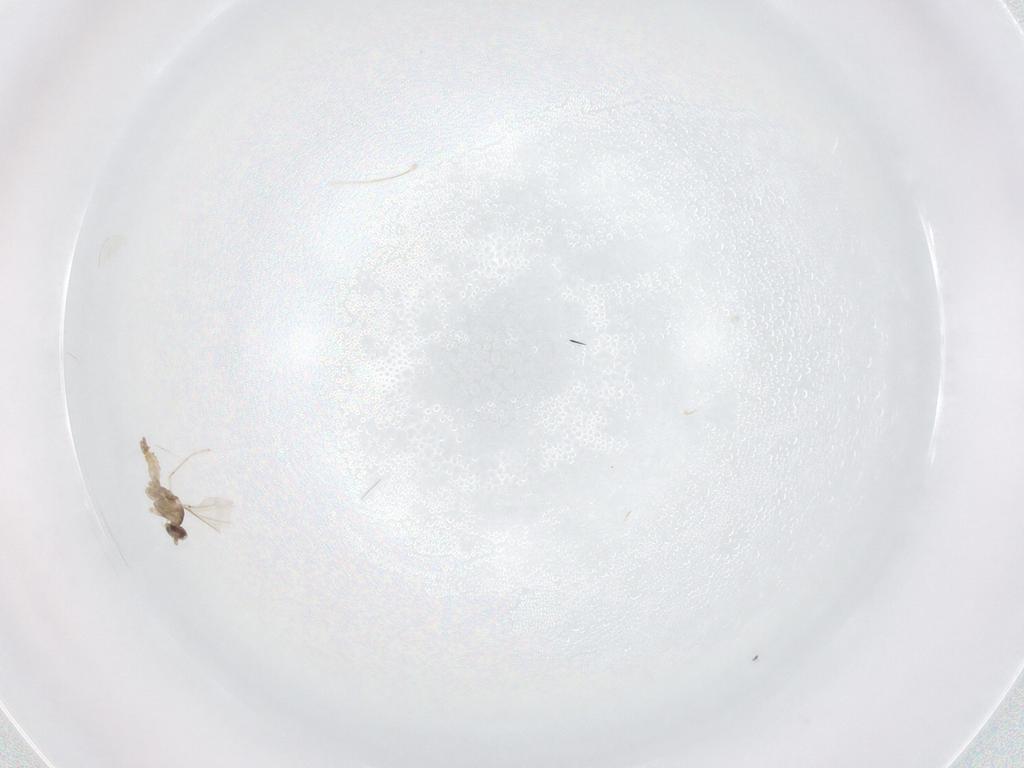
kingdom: Animalia
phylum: Arthropoda
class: Insecta
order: Diptera
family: Cecidomyiidae
